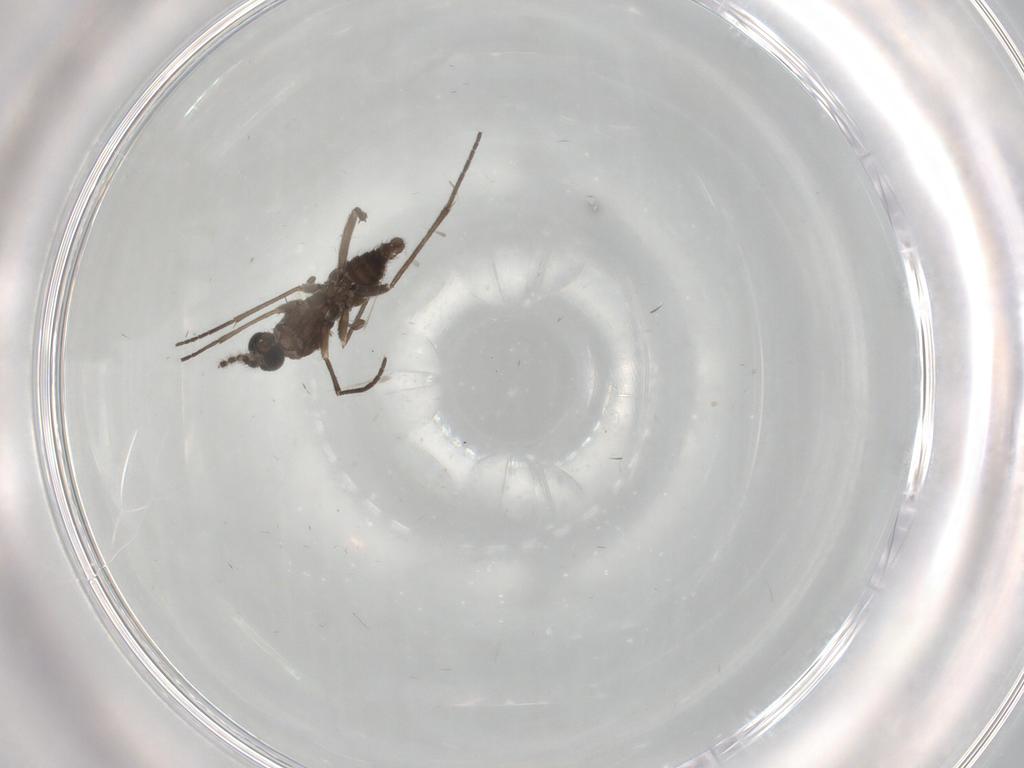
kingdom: Animalia
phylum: Arthropoda
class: Insecta
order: Diptera
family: Sciaridae
